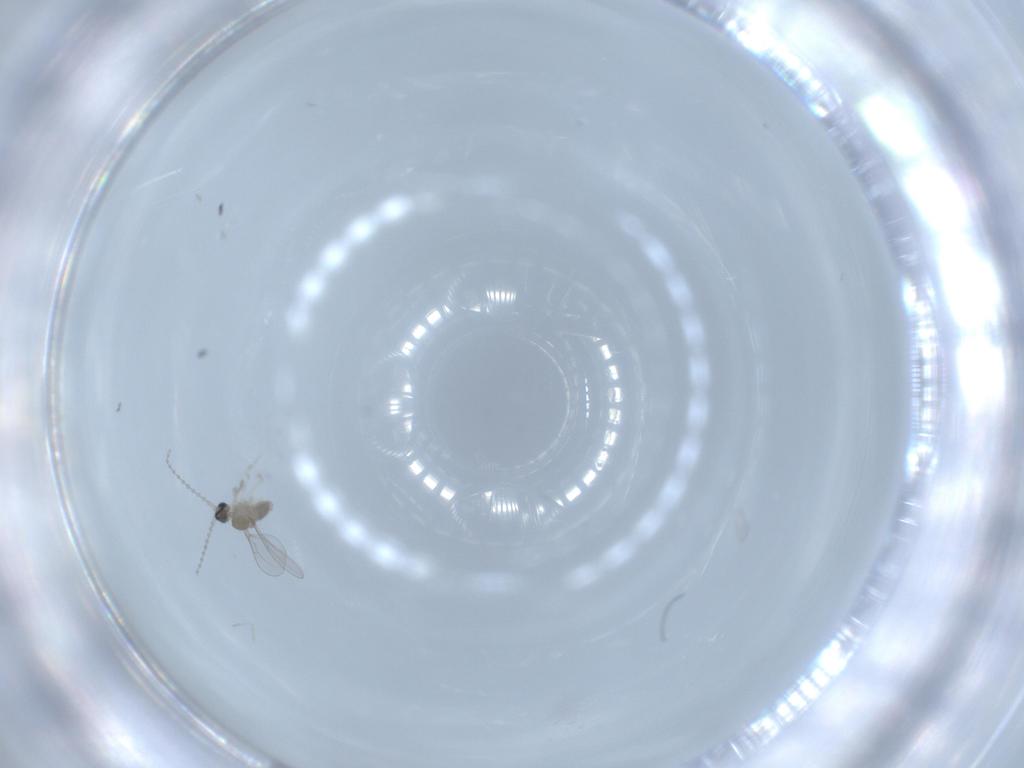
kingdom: Animalia
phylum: Arthropoda
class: Insecta
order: Diptera
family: Cecidomyiidae
